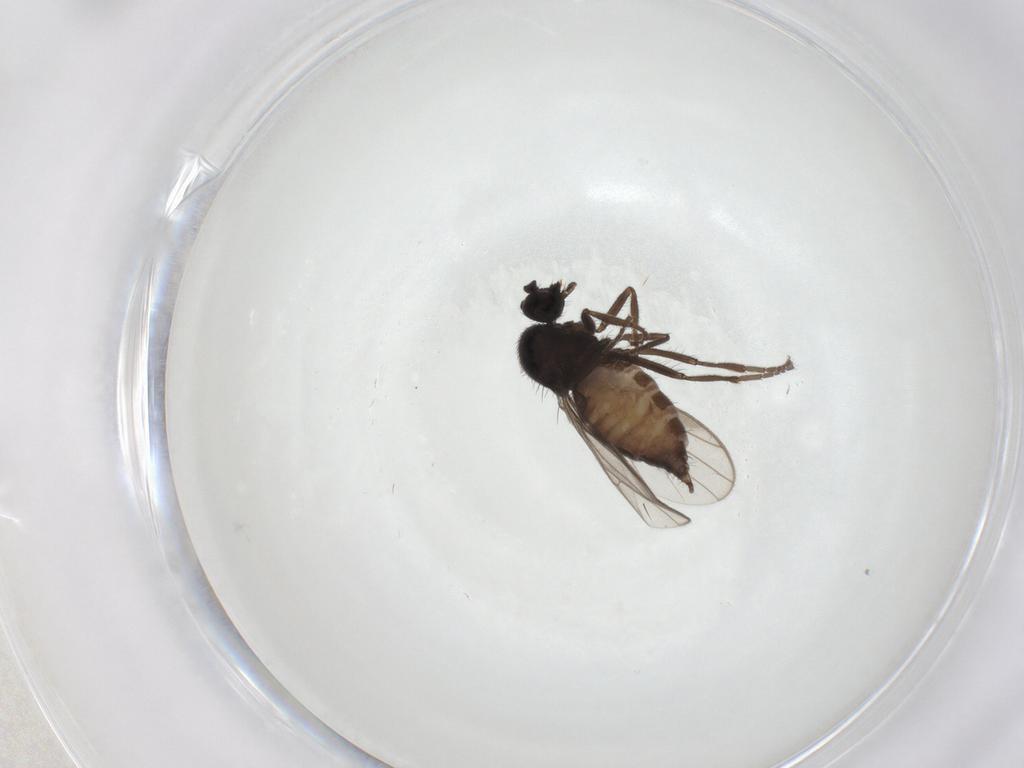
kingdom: Animalia
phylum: Arthropoda
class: Insecta
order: Diptera
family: Hybotidae
